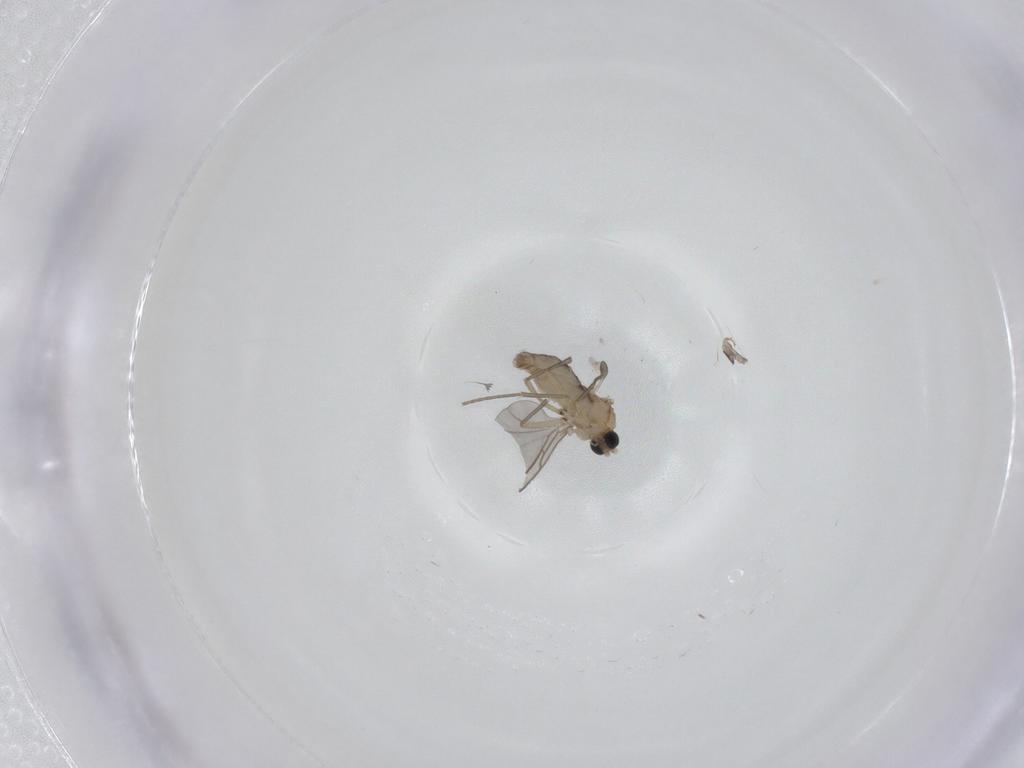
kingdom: Animalia
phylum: Arthropoda
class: Insecta
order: Diptera
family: Sciaridae
